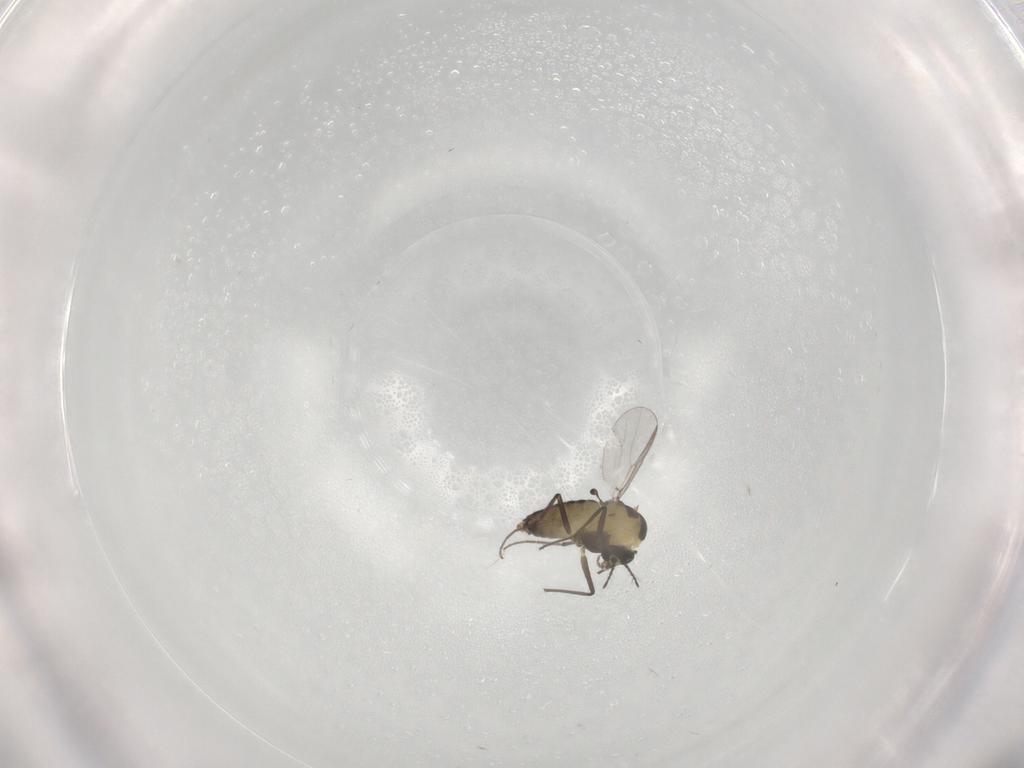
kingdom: Animalia
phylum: Arthropoda
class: Insecta
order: Diptera
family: Chironomidae
